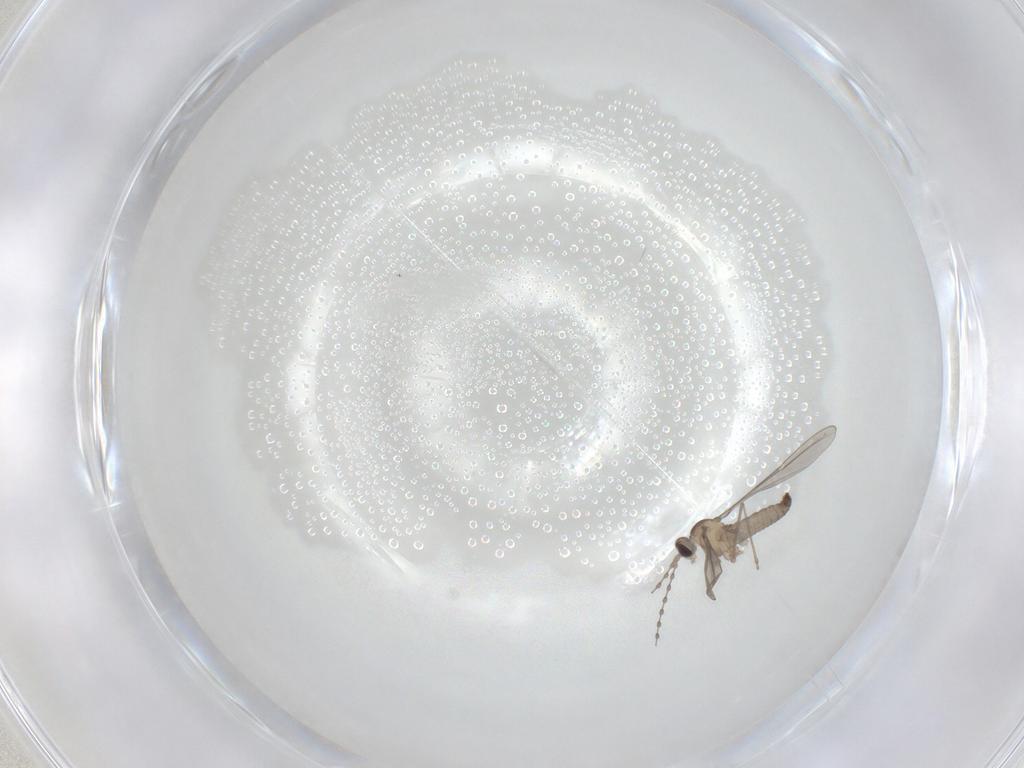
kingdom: Animalia
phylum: Arthropoda
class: Insecta
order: Diptera
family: Cecidomyiidae
